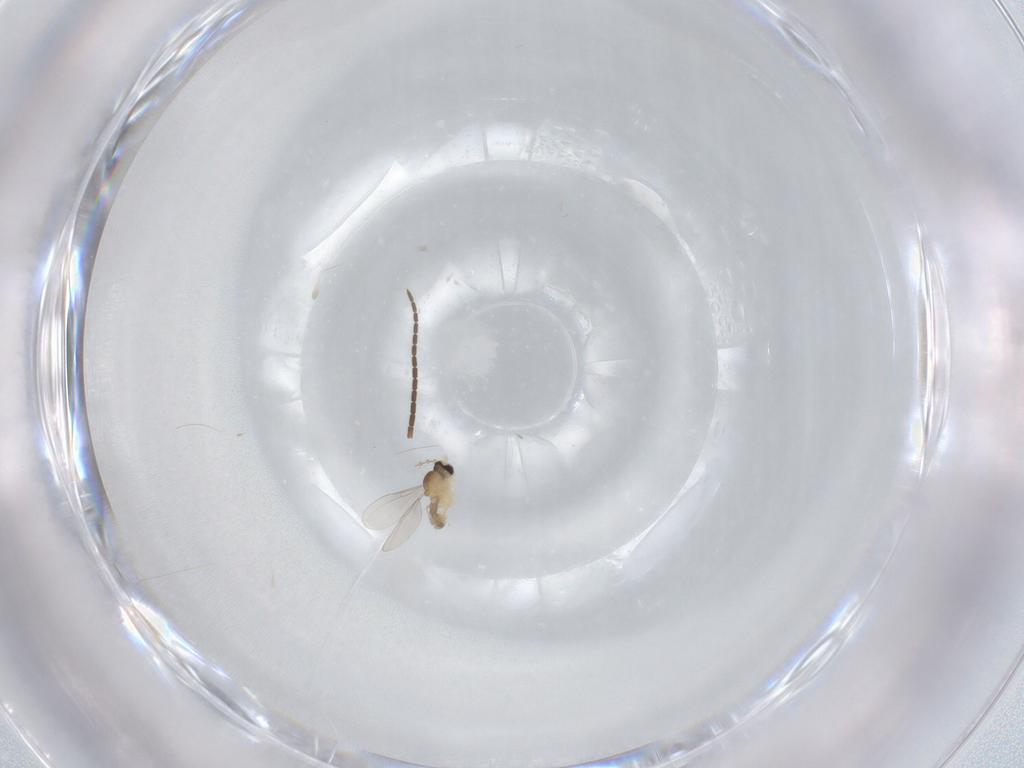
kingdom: Animalia
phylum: Arthropoda
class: Insecta
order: Diptera
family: Cecidomyiidae
